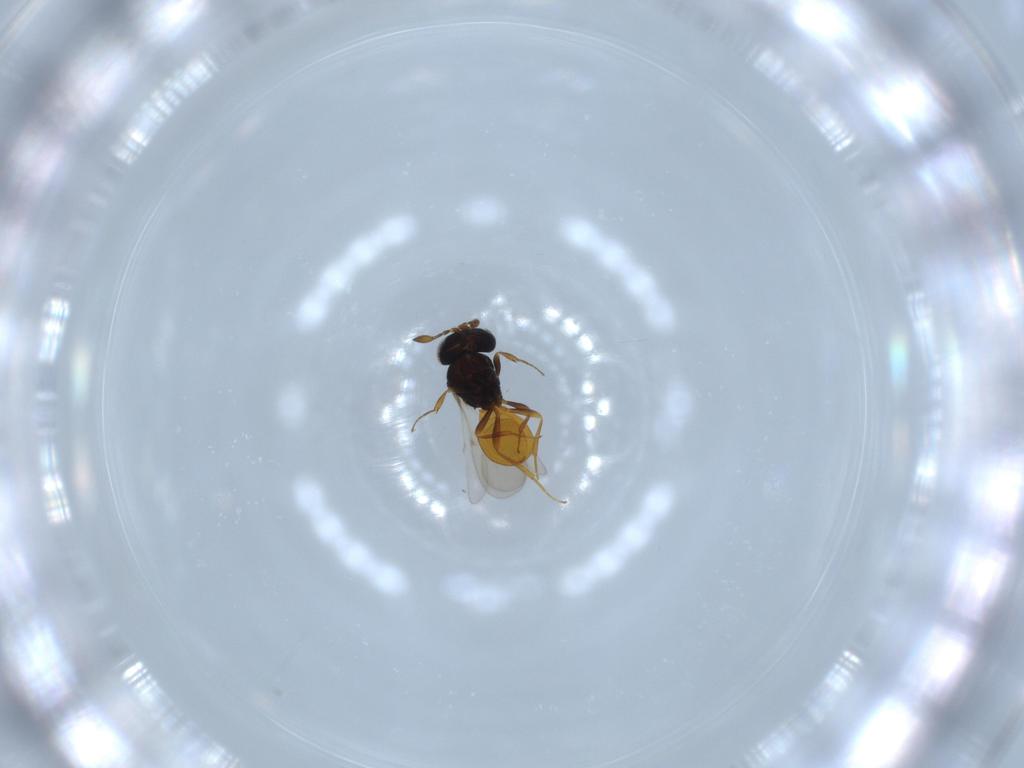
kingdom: Animalia
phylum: Arthropoda
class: Insecta
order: Hymenoptera
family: Scelionidae
